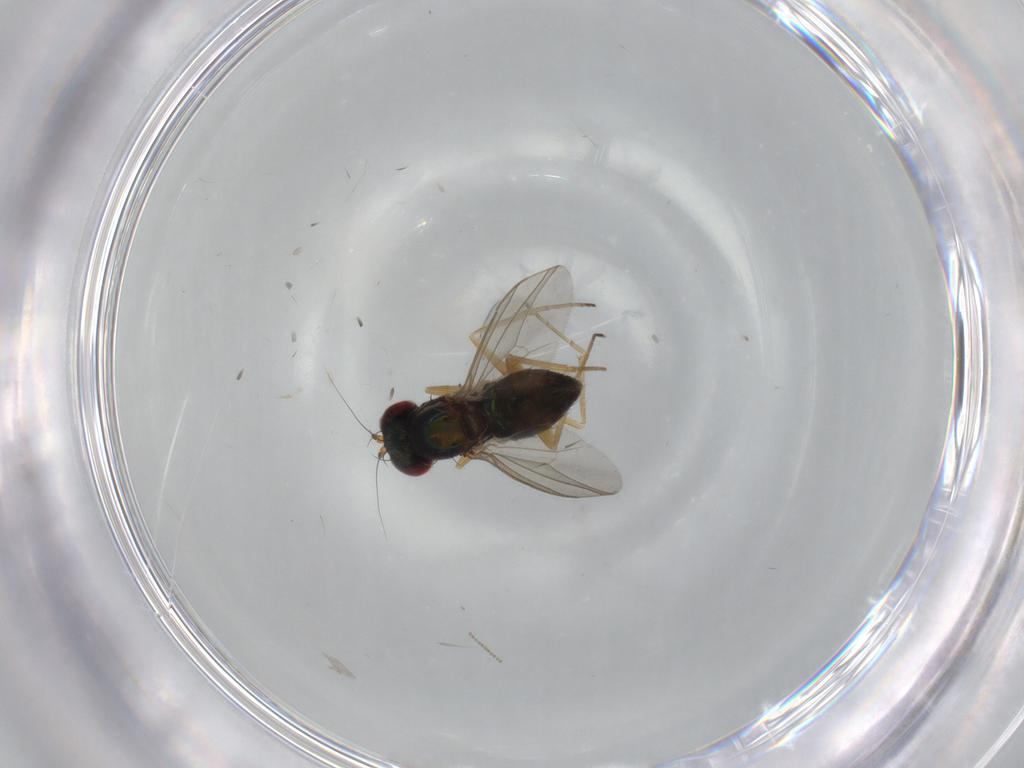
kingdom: Animalia
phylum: Arthropoda
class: Insecta
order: Diptera
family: Cecidomyiidae
